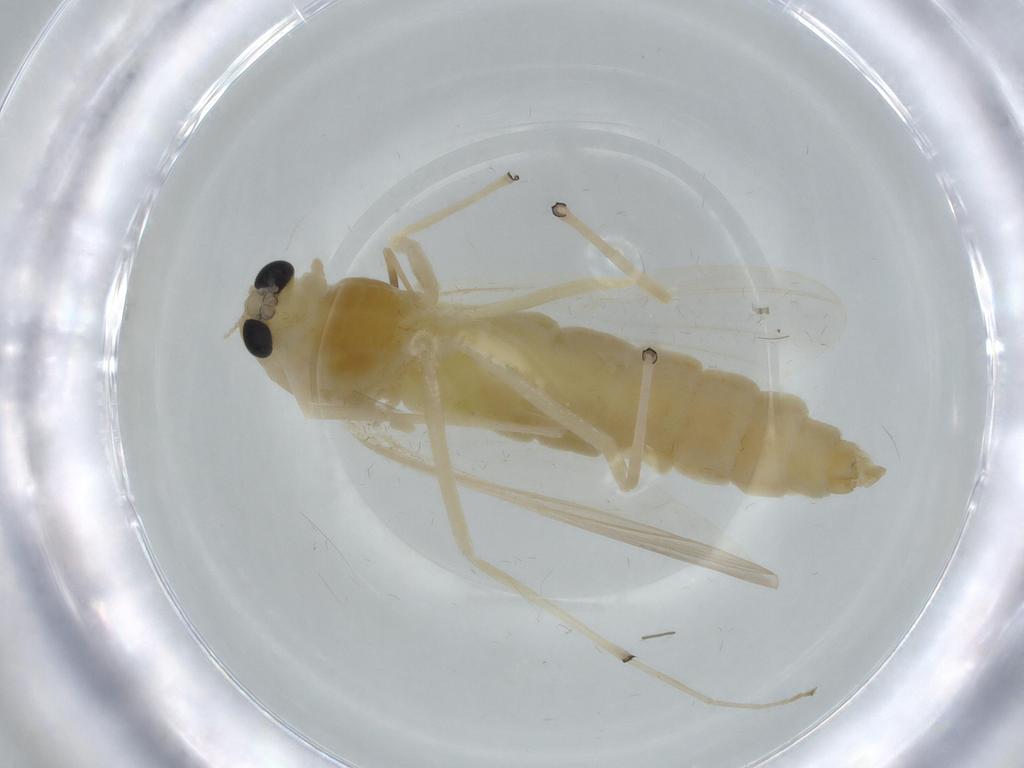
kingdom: Animalia
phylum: Arthropoda
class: Insecta
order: Diptera
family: Chironomidae
